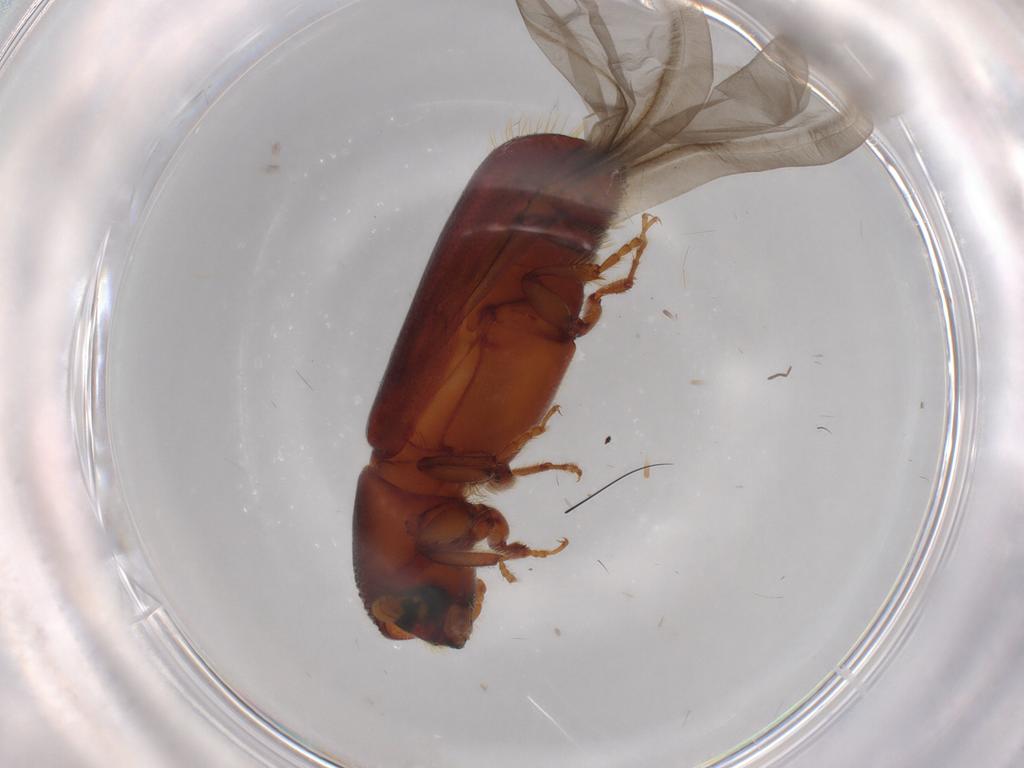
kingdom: Animalia
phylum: Arthropoda
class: Insecta
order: Coleoptera
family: Curculionidae
